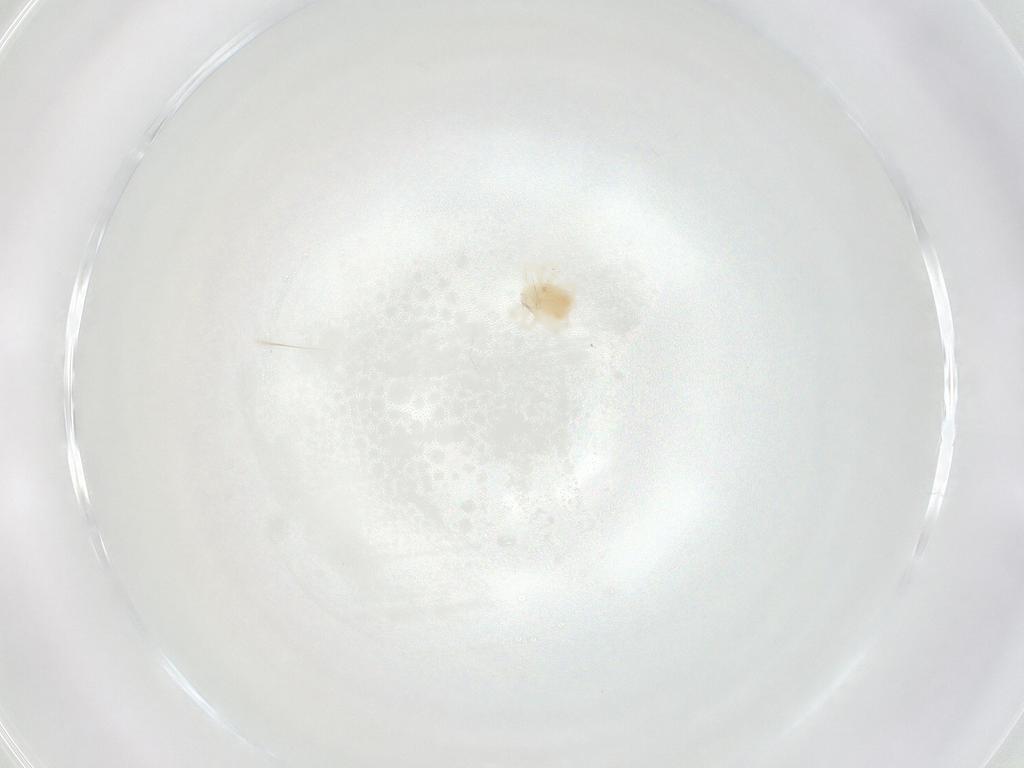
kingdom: Animalia
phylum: Arthropoda
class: Arachnida
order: Trombidiformes
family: Anystidae
